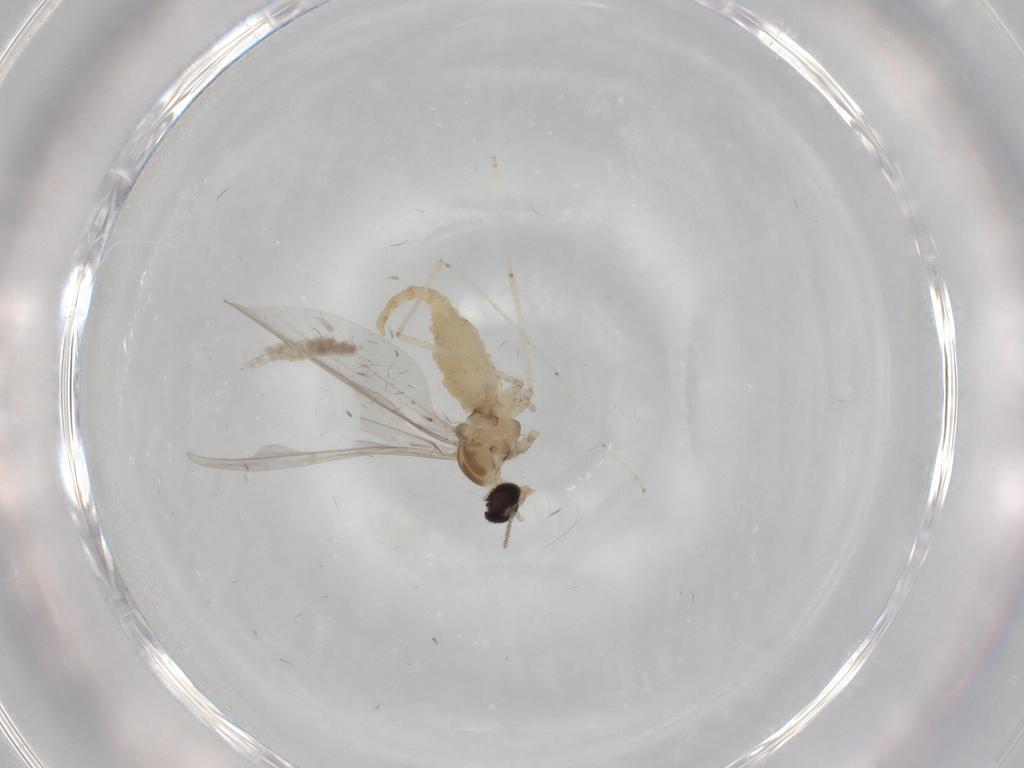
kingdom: Animalia
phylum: Arthropoda
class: Insecta
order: Diptera
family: Cecidomyiidae
